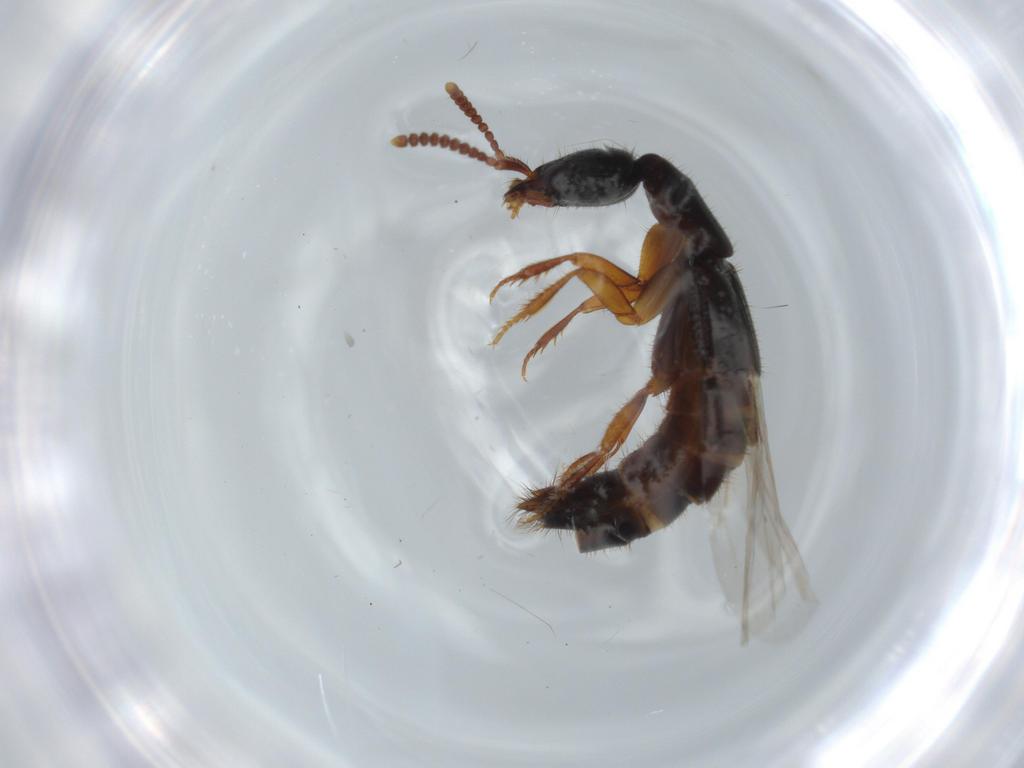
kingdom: Animalia
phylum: Arthropoda
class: Insecta
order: Coleoptera
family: Staphylinidae
